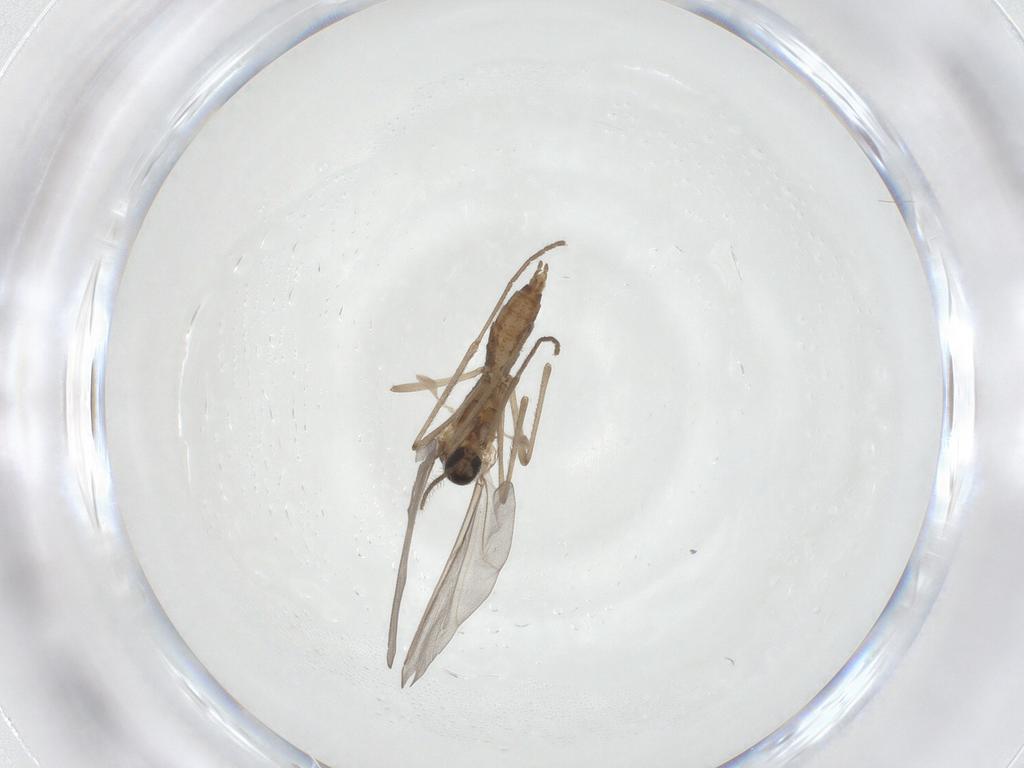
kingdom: Animalia
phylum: Arthropoda
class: Insecta
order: Diptera
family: Cecidomyiidae
